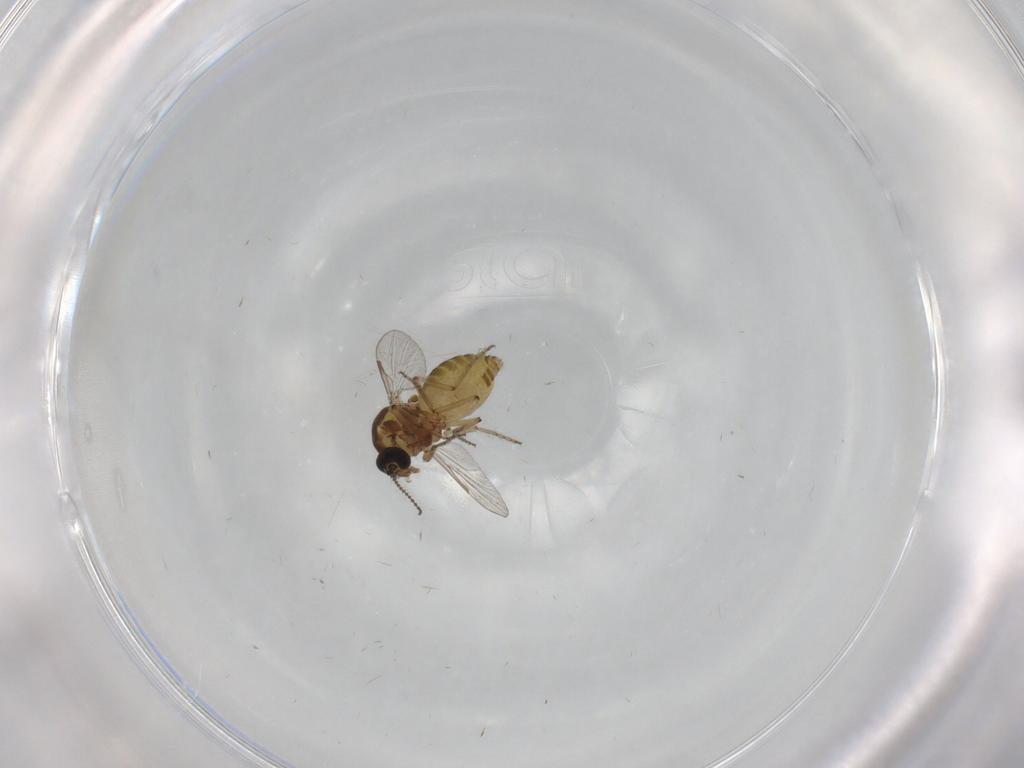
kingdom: Animalia
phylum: Arthropoda
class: Insecta
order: Diptera
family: Ceratopogonidae
